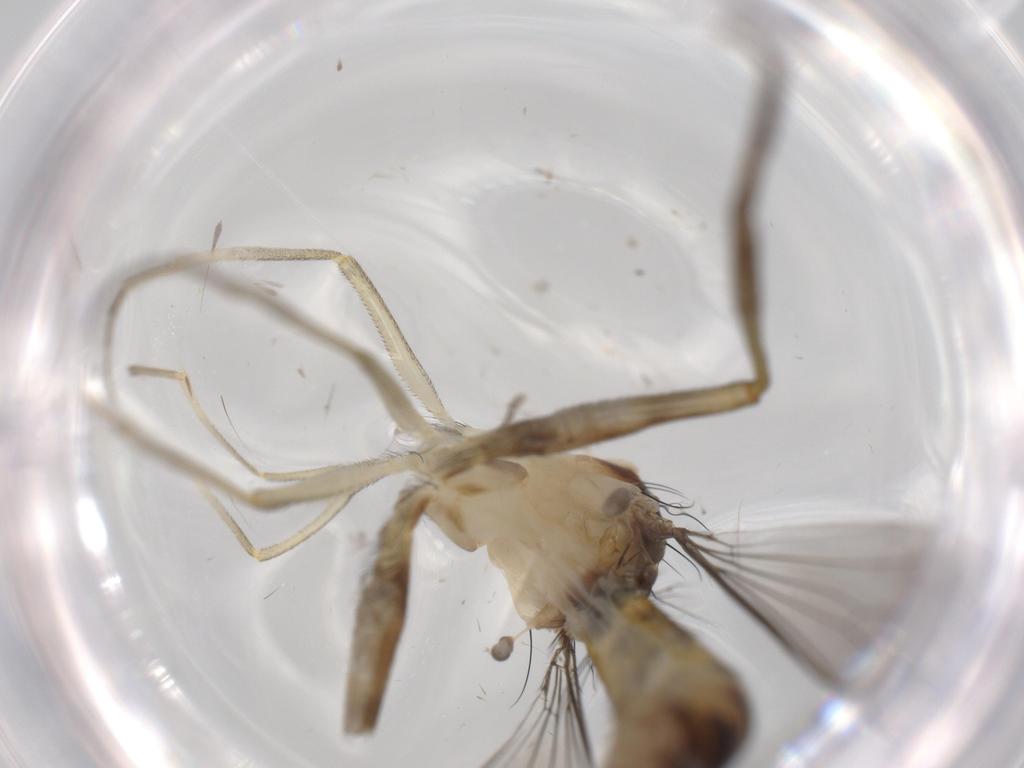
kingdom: Animalia
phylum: Arthropoda
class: Insecta
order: Diptera
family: Conopidae
